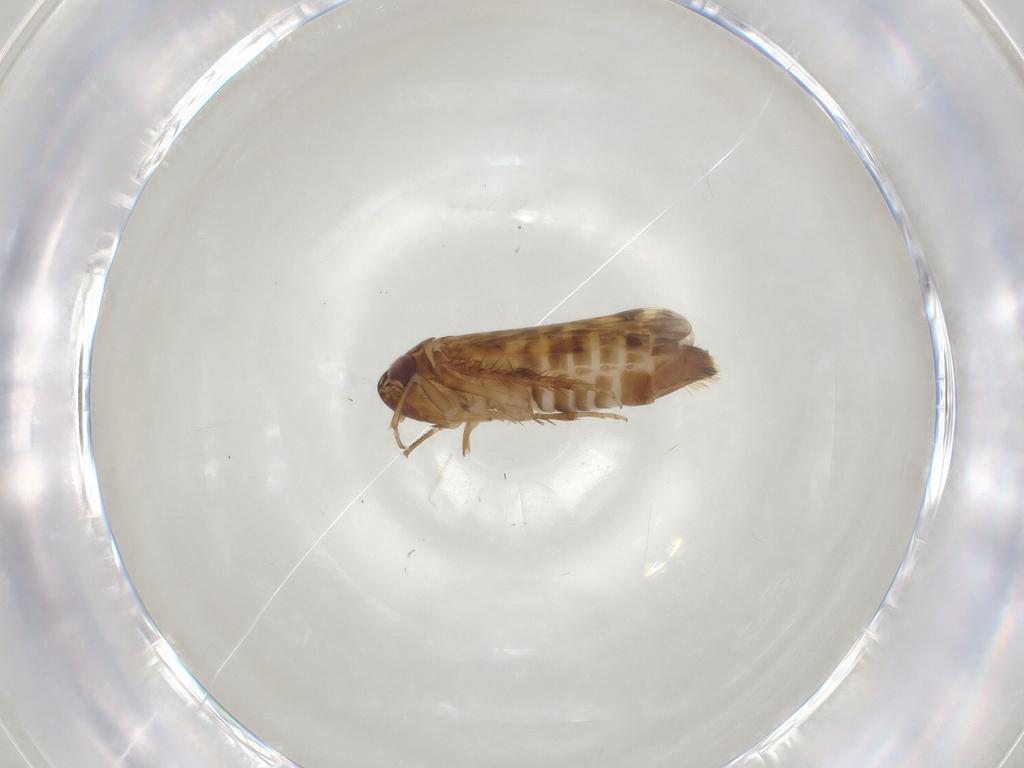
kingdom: Animalia
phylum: Arthropoda
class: Insecta
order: Hemiptera
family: Cicadellidae
